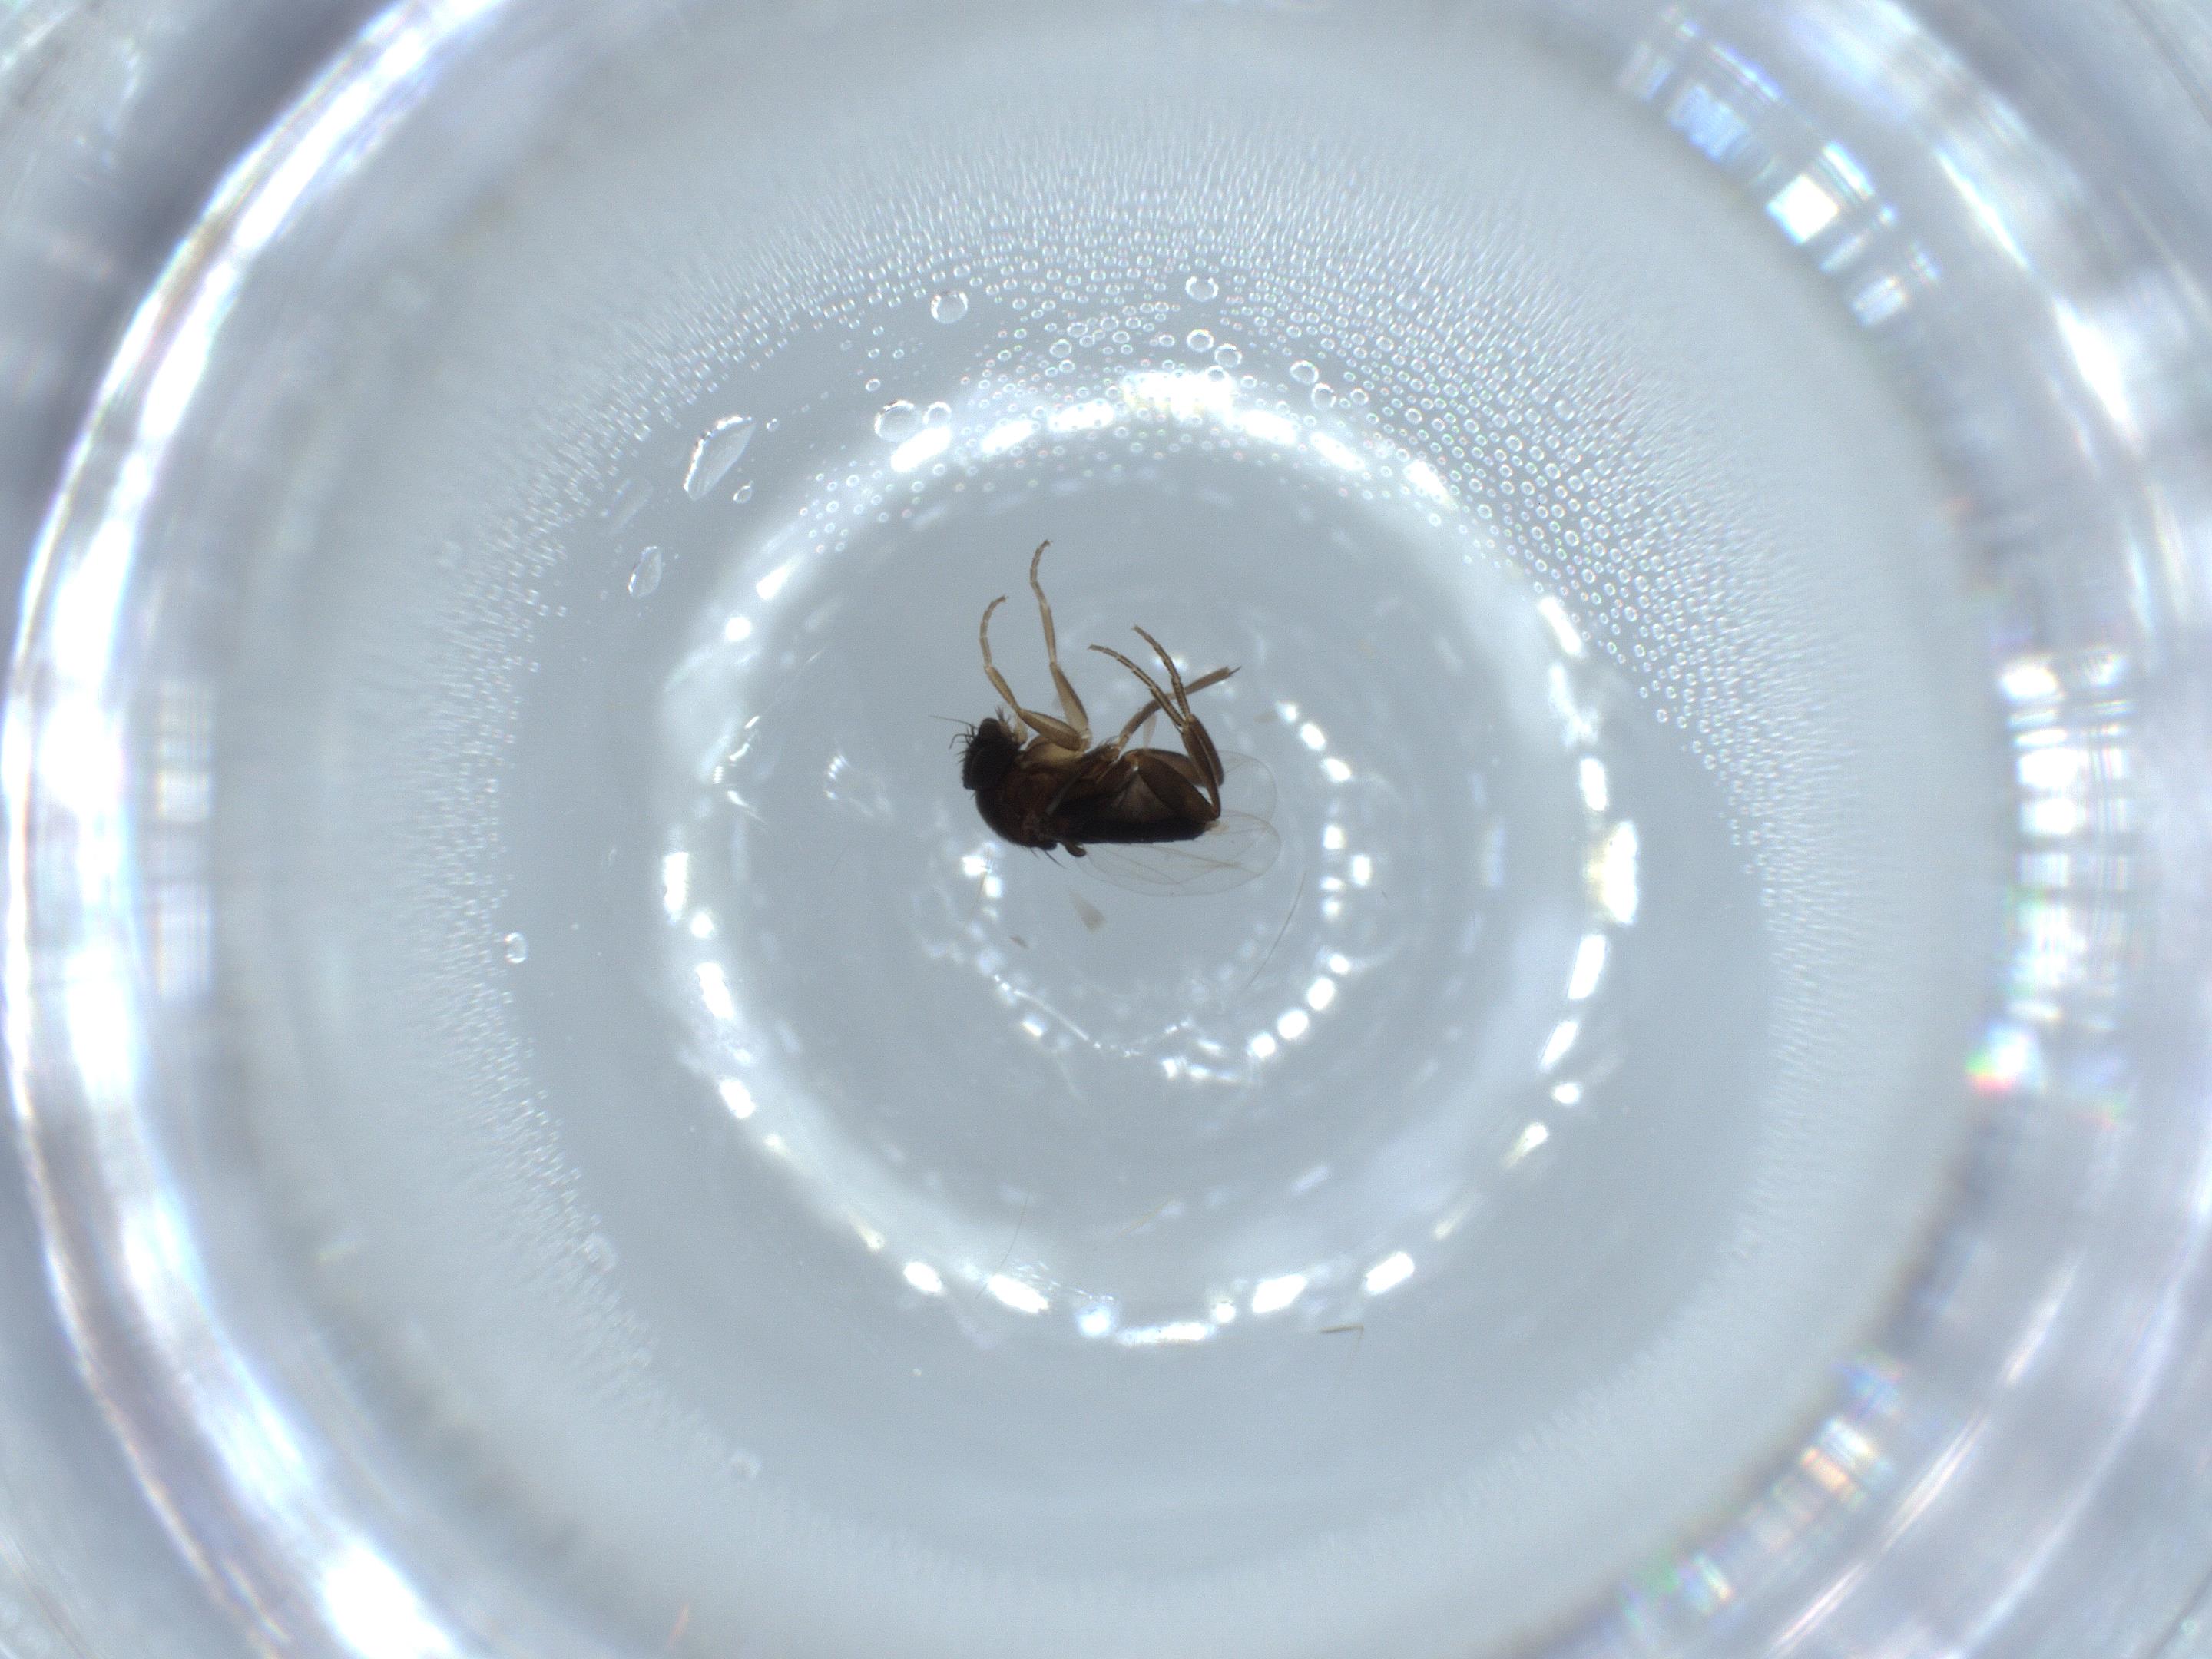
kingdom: Animalia
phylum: Arthropoda
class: Insecta
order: Diptera
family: Phoridae
